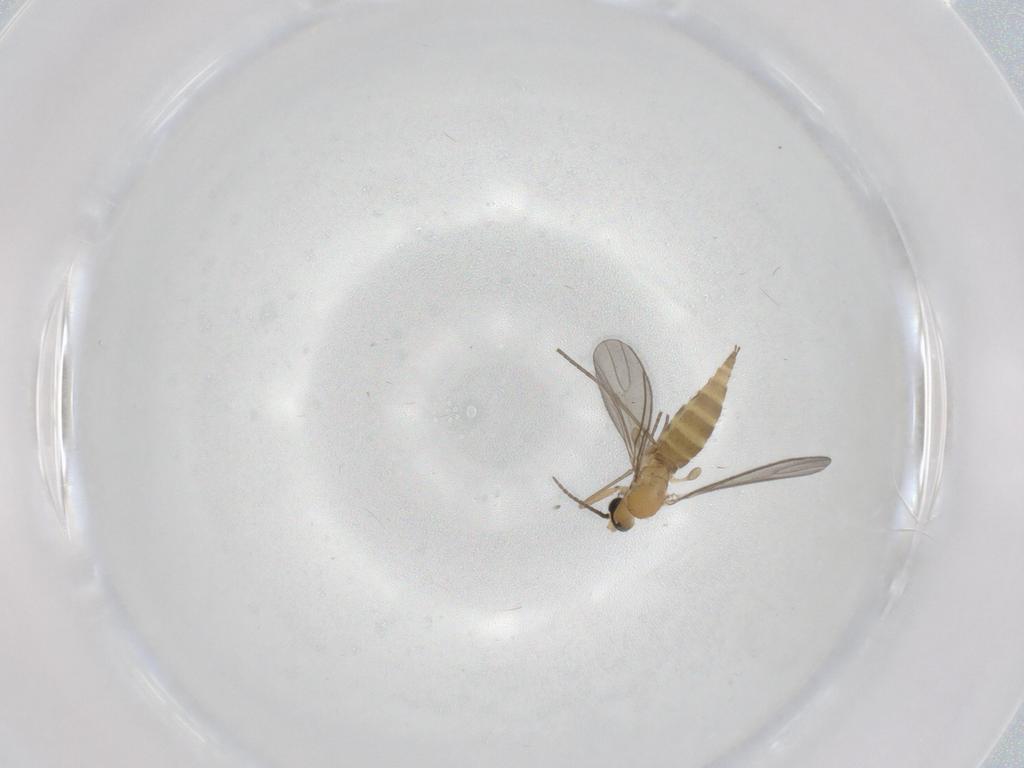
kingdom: Animalia
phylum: Arthropoda
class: Insecta
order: Diptera
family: Sciaridae
